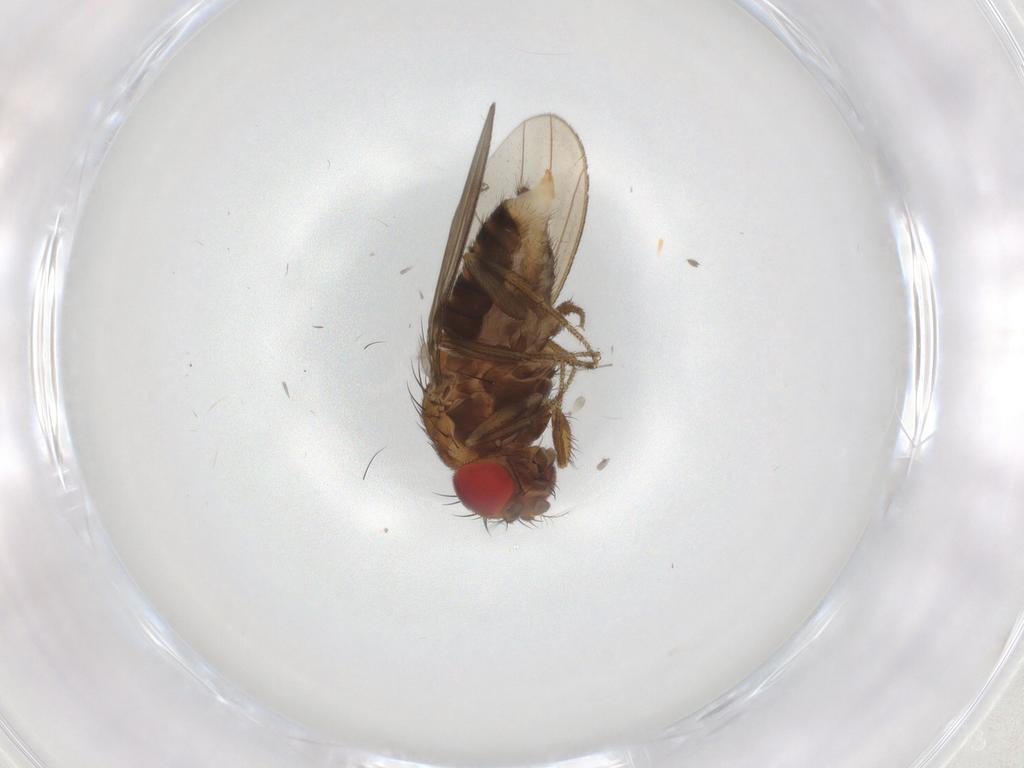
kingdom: Animalia
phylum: Arthropoda
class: Insecta
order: Diptera
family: Drosophilidae
